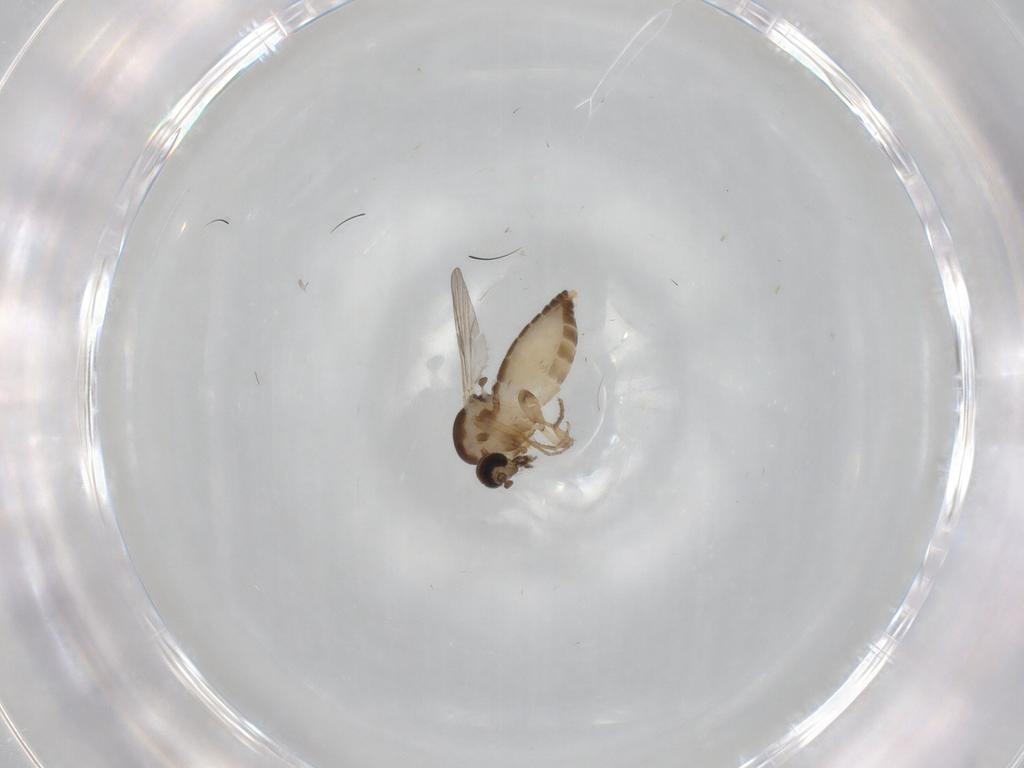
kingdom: Animalia
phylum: Arthropoda
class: Insecta
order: Diptera
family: Ceratopogonidae
